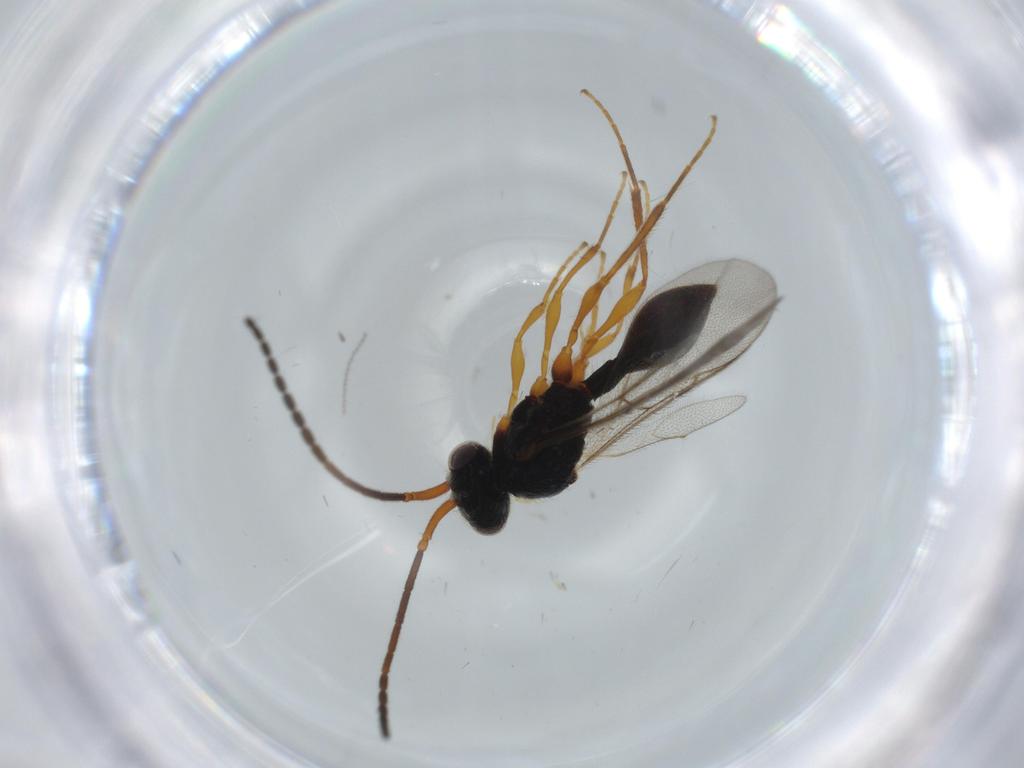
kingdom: Animalia
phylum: Arthropoda
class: Insecta
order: Hymenoptera
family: Diapriidae
